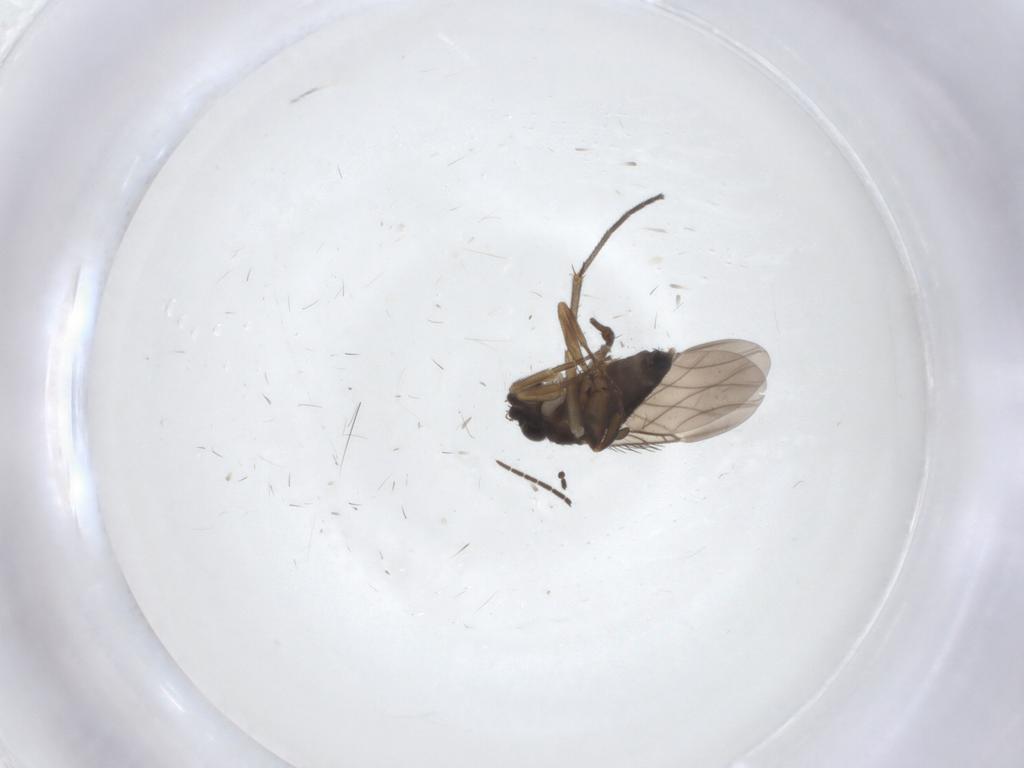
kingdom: Animalia
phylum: Arthropoda
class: Insecta
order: Diptera
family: Phoridae
